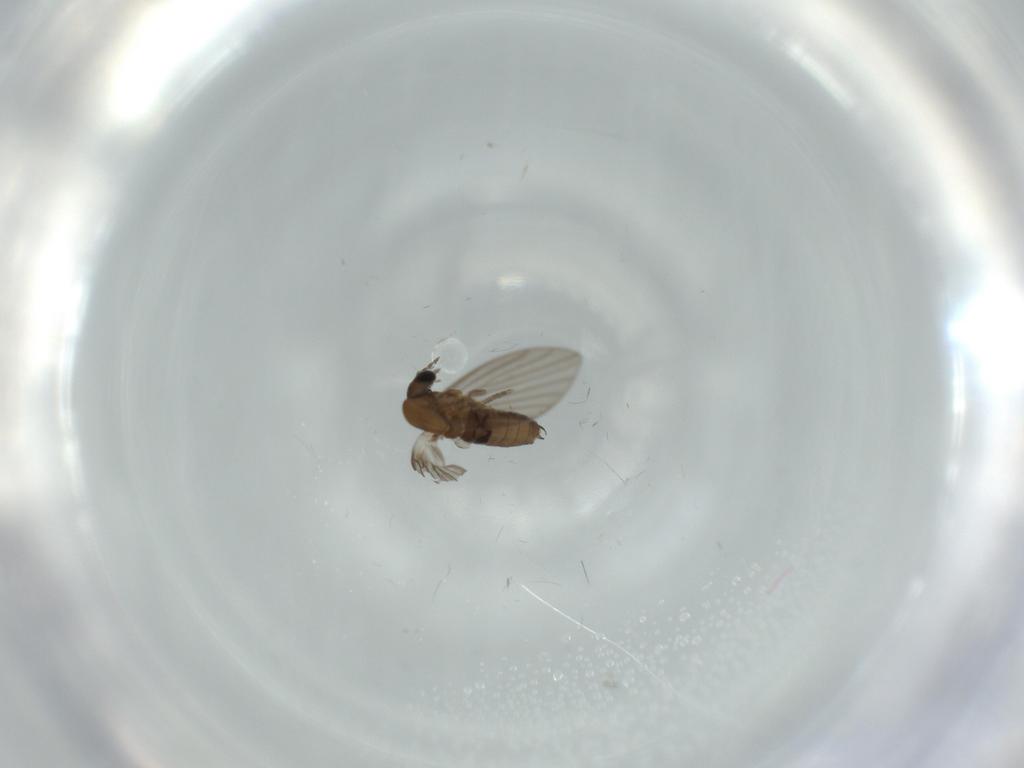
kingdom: Animalia
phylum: Arthropoda
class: Insecta
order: Diptera
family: Psychodidae
